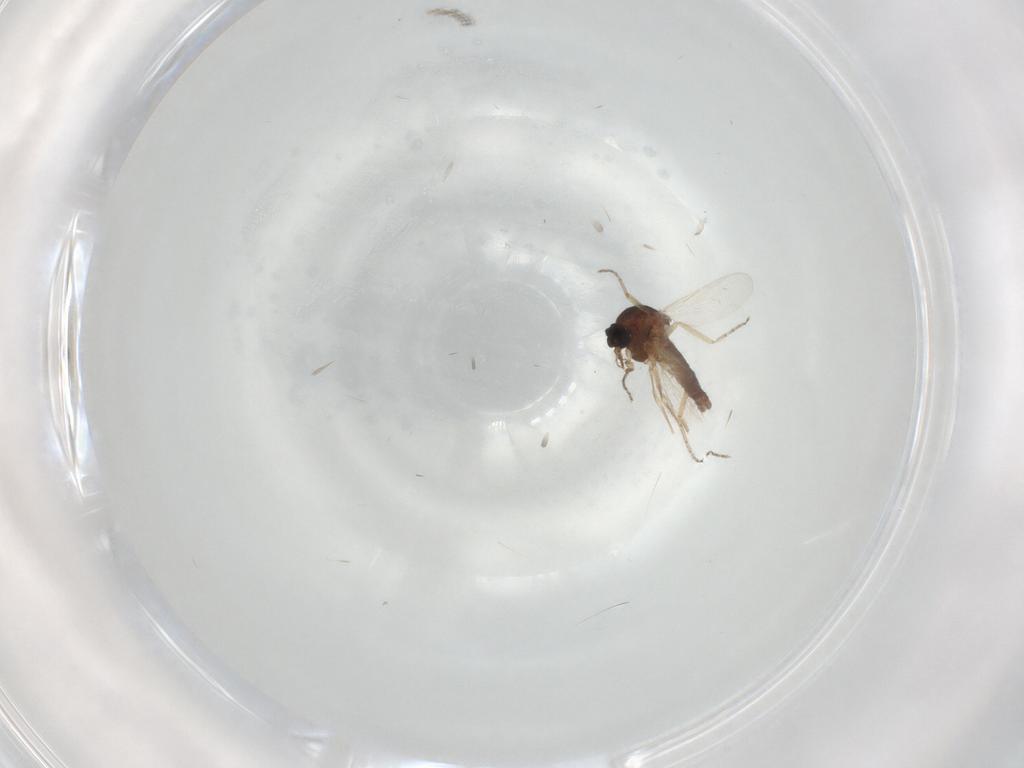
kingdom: Animalia
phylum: Arthropoda
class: Insecta
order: Diptera
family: Ceratopogonidae
